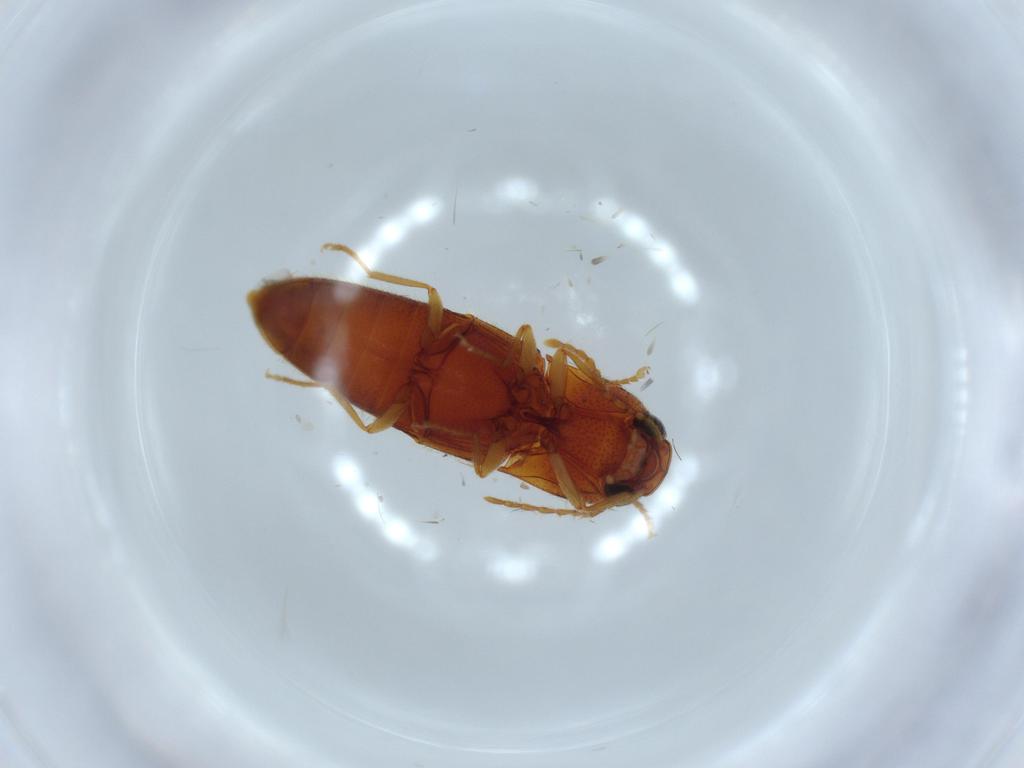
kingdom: Animalia
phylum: Arthropoda
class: Insecta
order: Coleoptera
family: Elateridae
